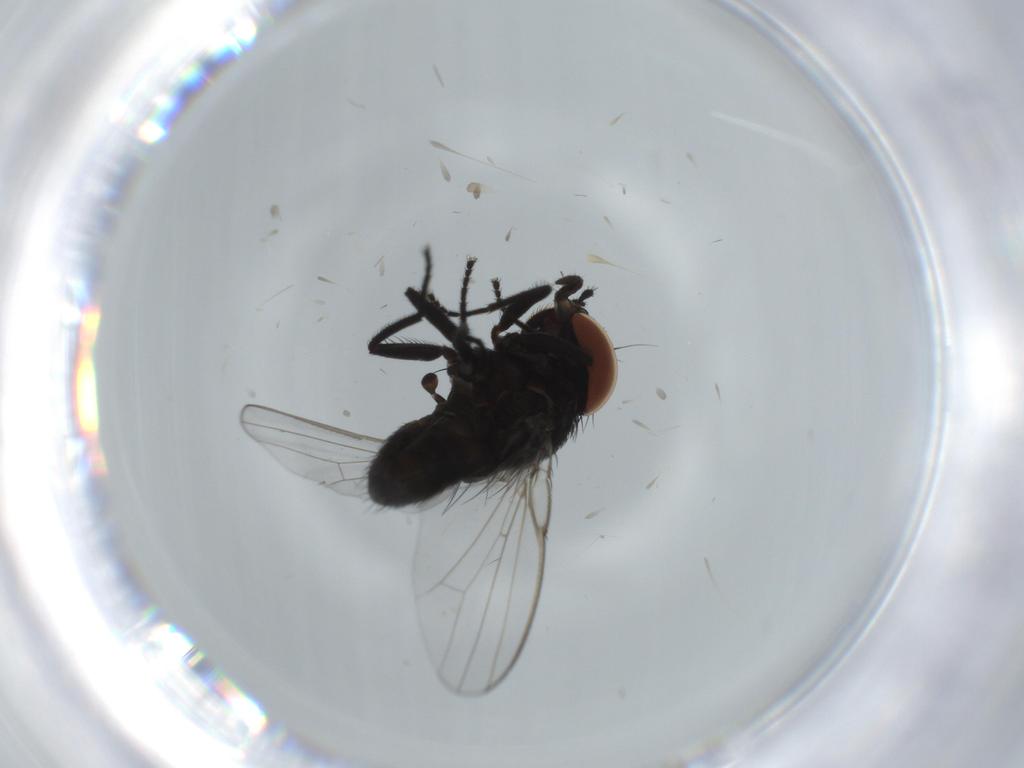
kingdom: Animalia
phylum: Arthropoda
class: Insecta
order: Diptera
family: Milichiidae
